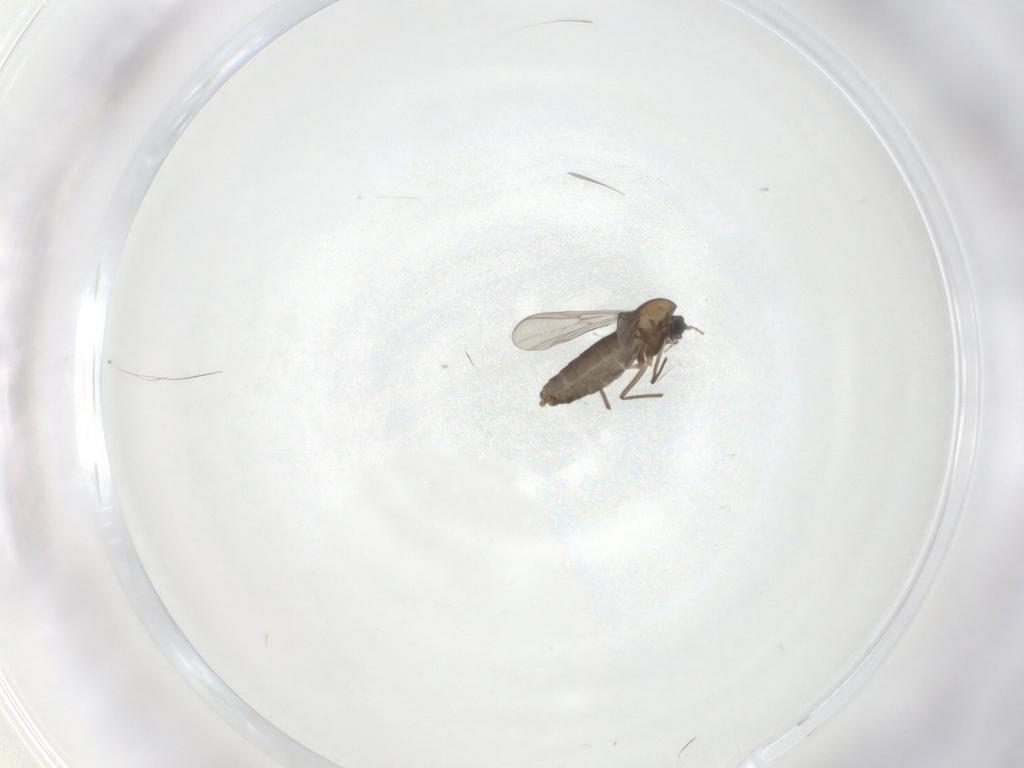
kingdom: Animalia
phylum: Arthropoda
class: Insecta
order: Diptera
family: Chironomidae
